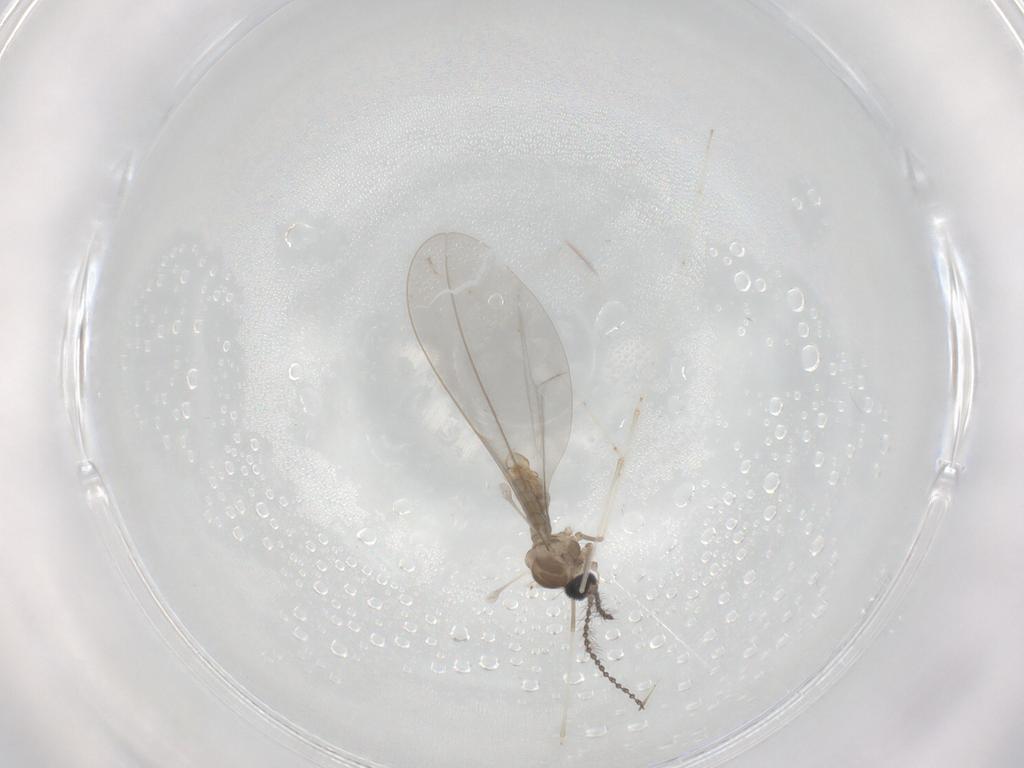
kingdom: Animalia
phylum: Arthropoda
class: Insecta
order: Diptera
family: Cecidomyiidae
